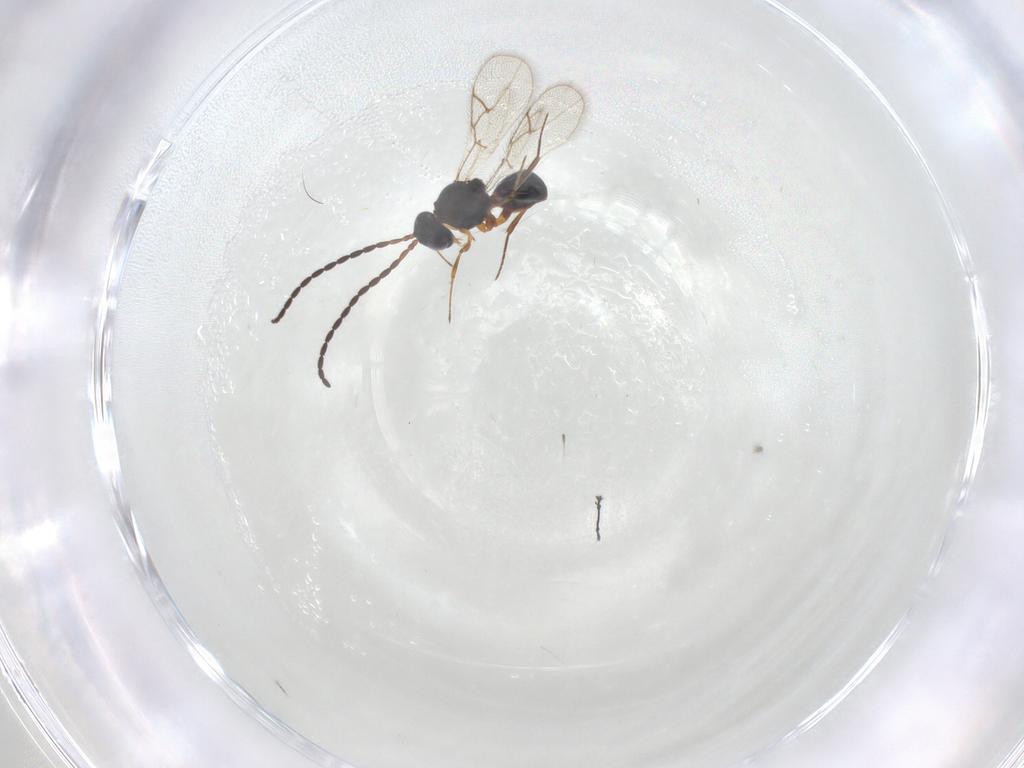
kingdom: Animalia
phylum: Arthropoda
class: Insecta
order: Hymenoptera
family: Figitidae
